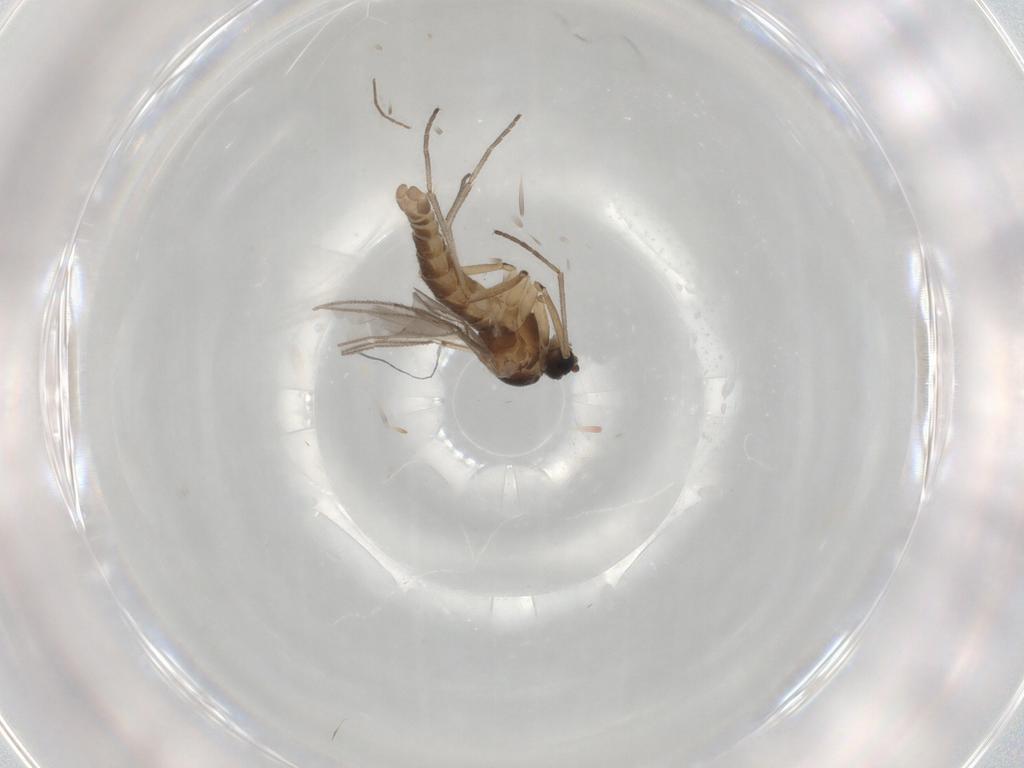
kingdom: Animalia
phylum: Arthropoda
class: Insecta
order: Diptera
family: Sciaridae
